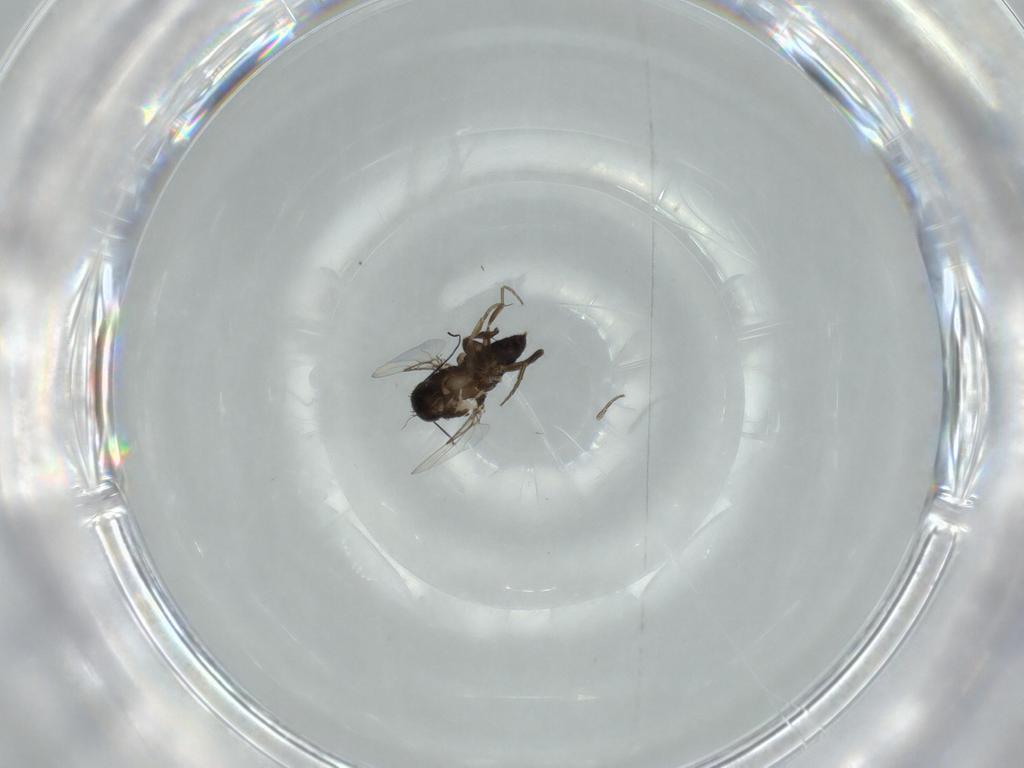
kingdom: Animalia
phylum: Arthropoda
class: Insecta
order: Diptera
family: Phoridae
